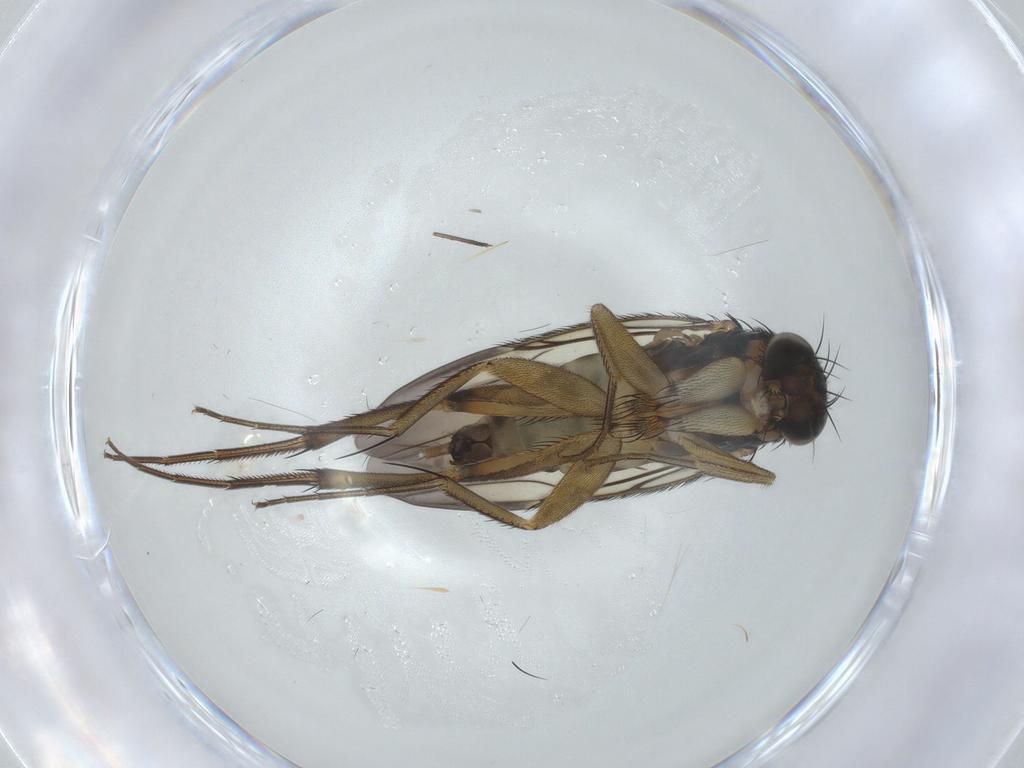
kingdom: Animalia
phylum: Arthropoda
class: Insecta
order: Diptera
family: Phoridae
